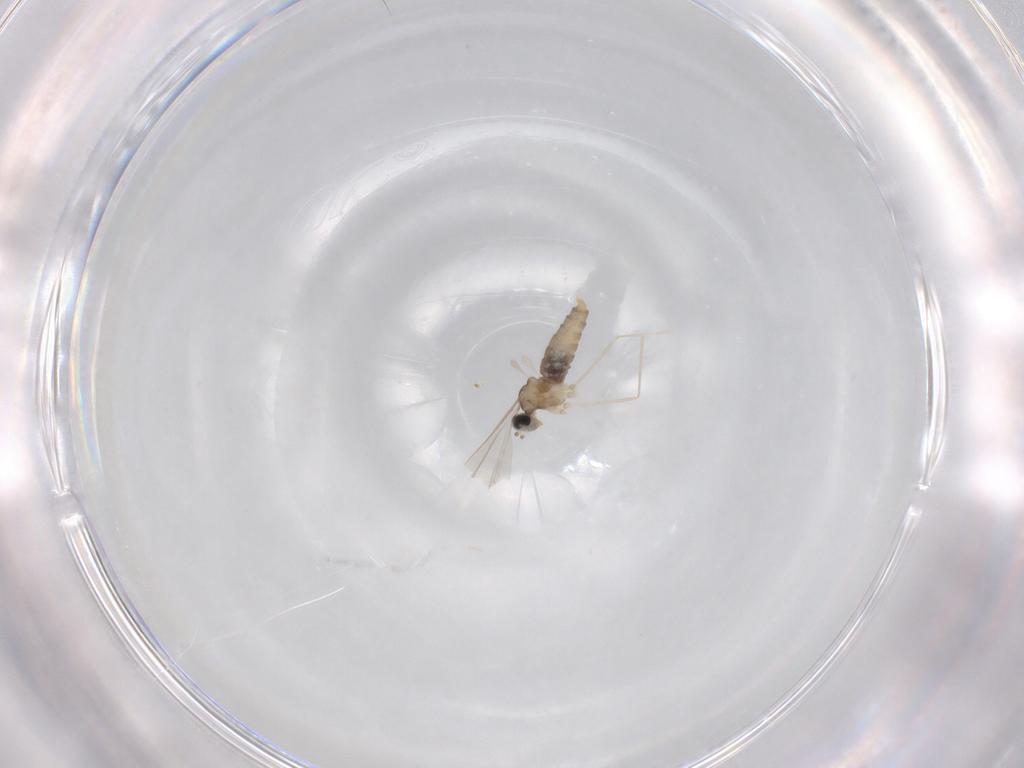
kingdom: Animalia
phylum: Arthropoda
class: Insecta
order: Diptera
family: Cecidomyiidae
